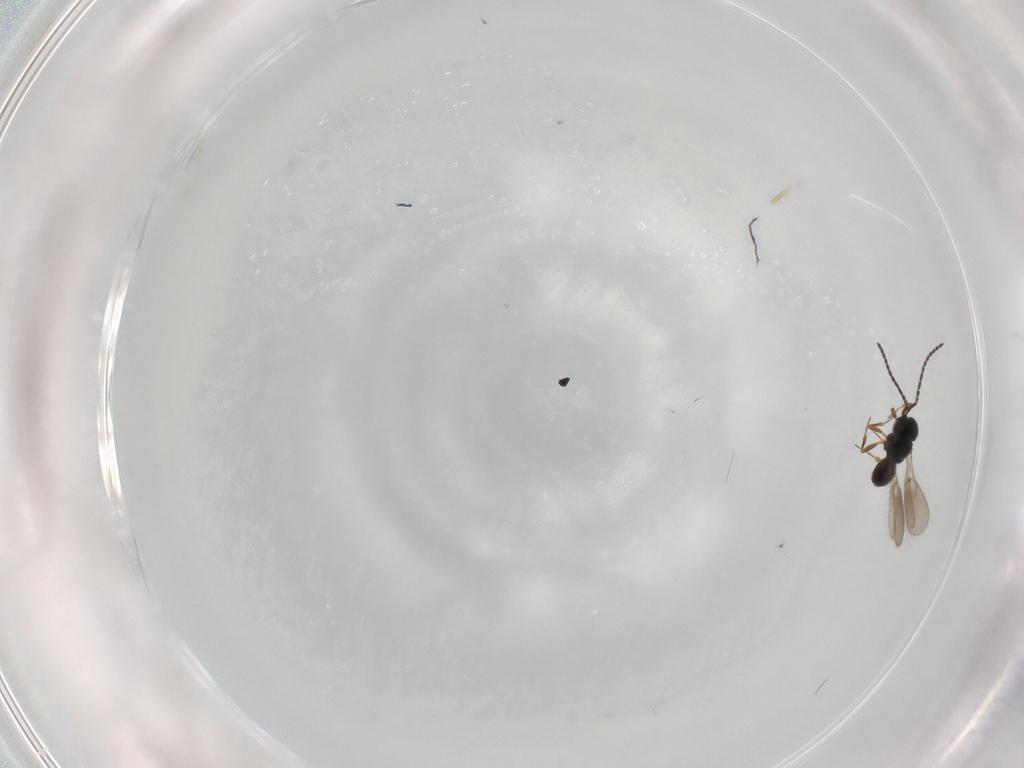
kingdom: Animalia
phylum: Arthropoda
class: Insecta
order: Hymenoptera
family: Scelionidae
